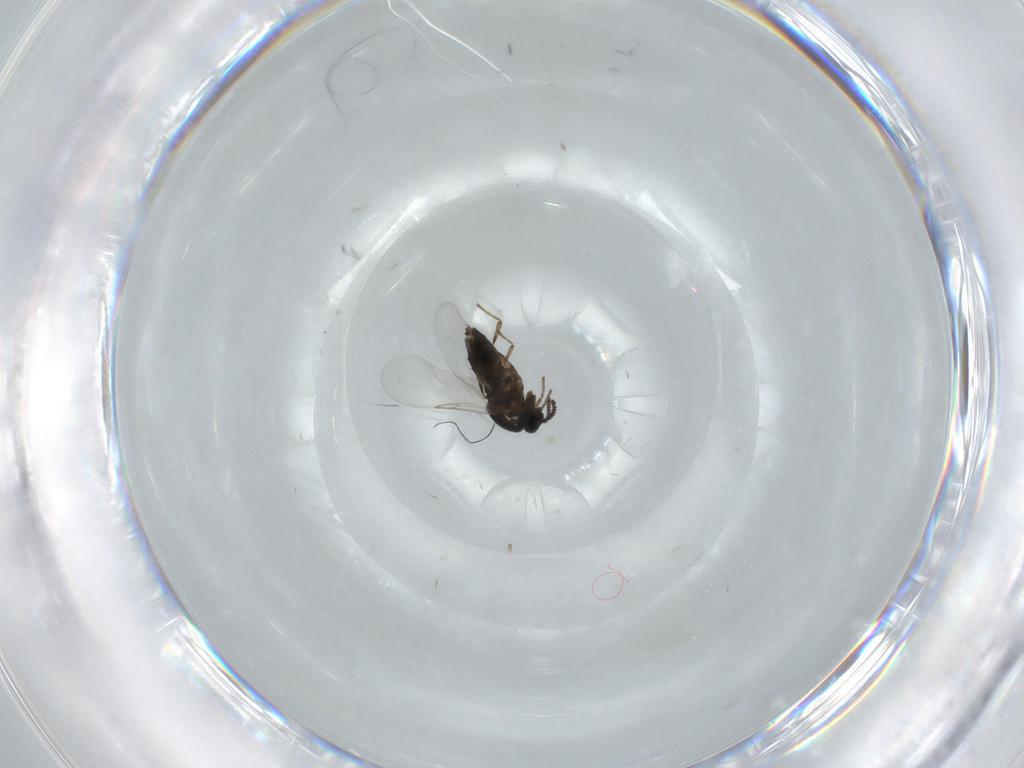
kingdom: Animalia
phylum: Arthropoda
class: Insecta
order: Diptera
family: Scatopsidae
